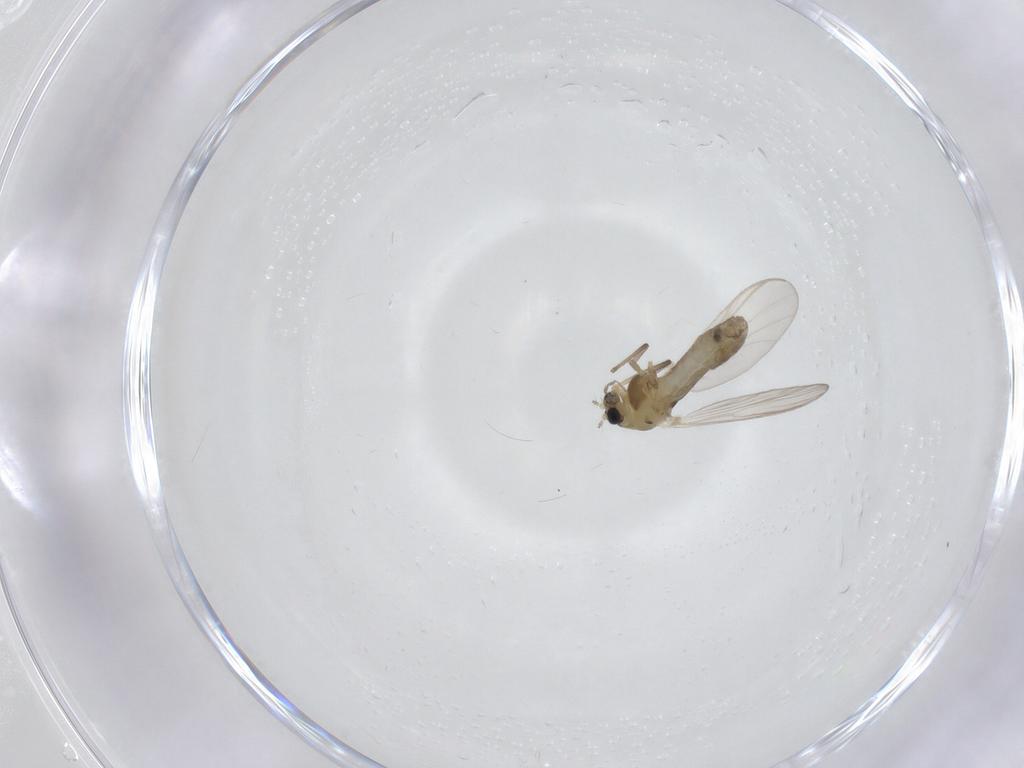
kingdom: Animalia
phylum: Arthropoda
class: Insecta
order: Diptera
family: Chironomidae
